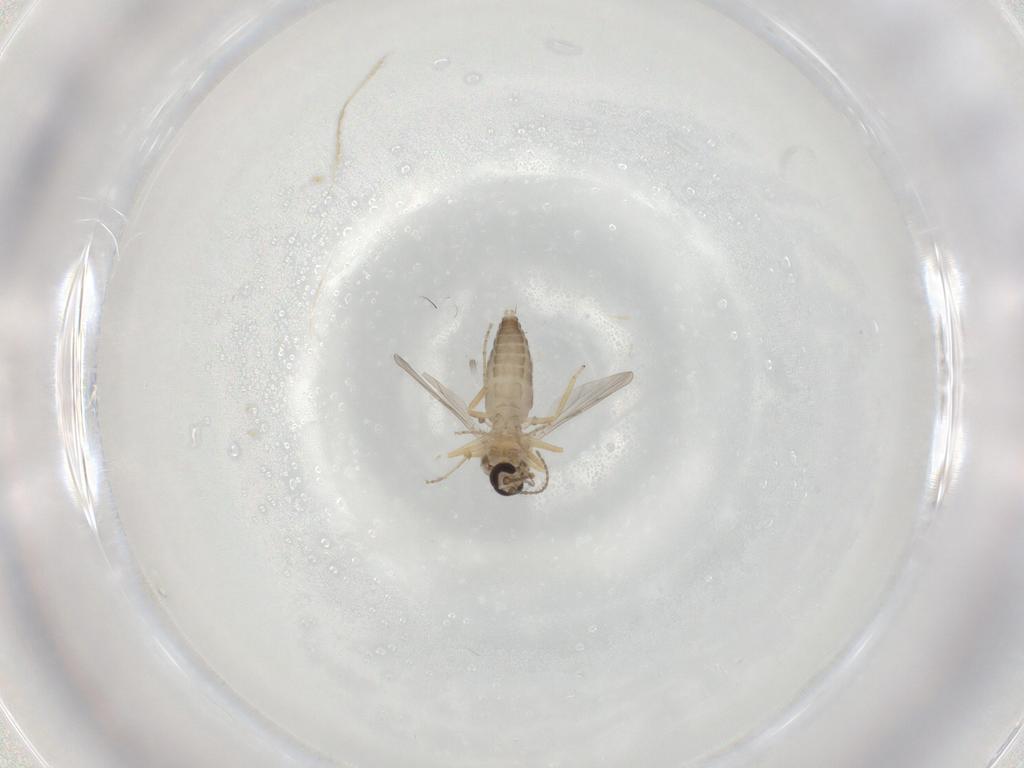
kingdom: Animalia
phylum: Arthropoda
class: Insecta
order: Diptera
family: Ceratopogonidae
